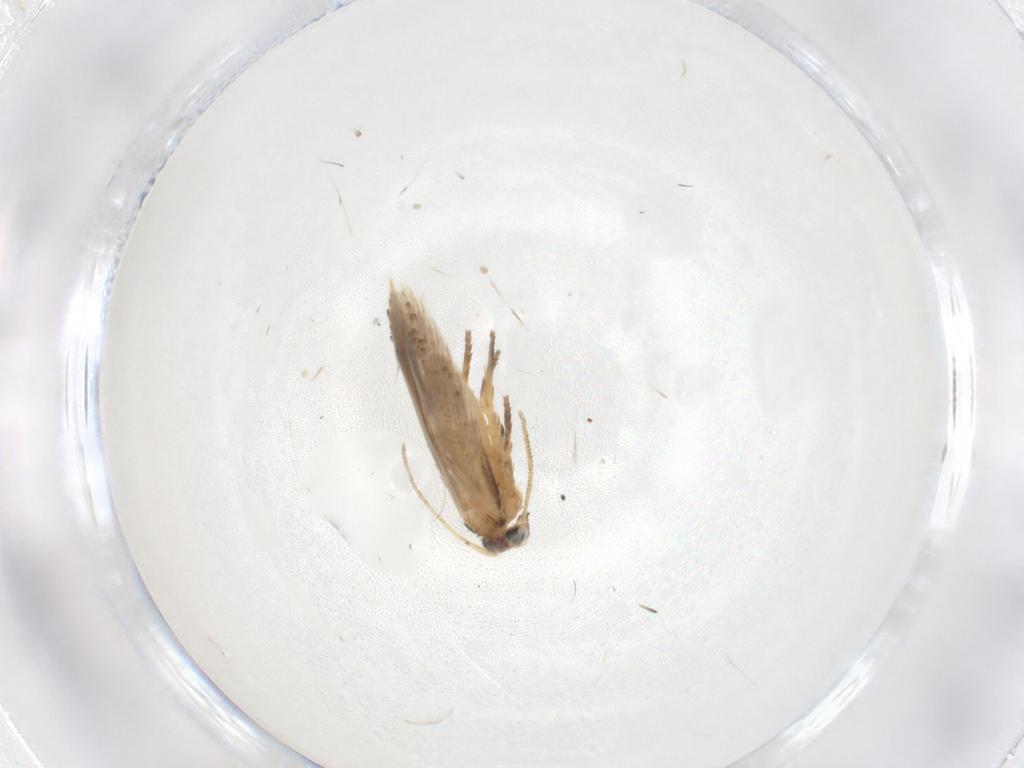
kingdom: Animalia
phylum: Arthropoda
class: Insecta
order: Lepidoptera
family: Nepticulidae
